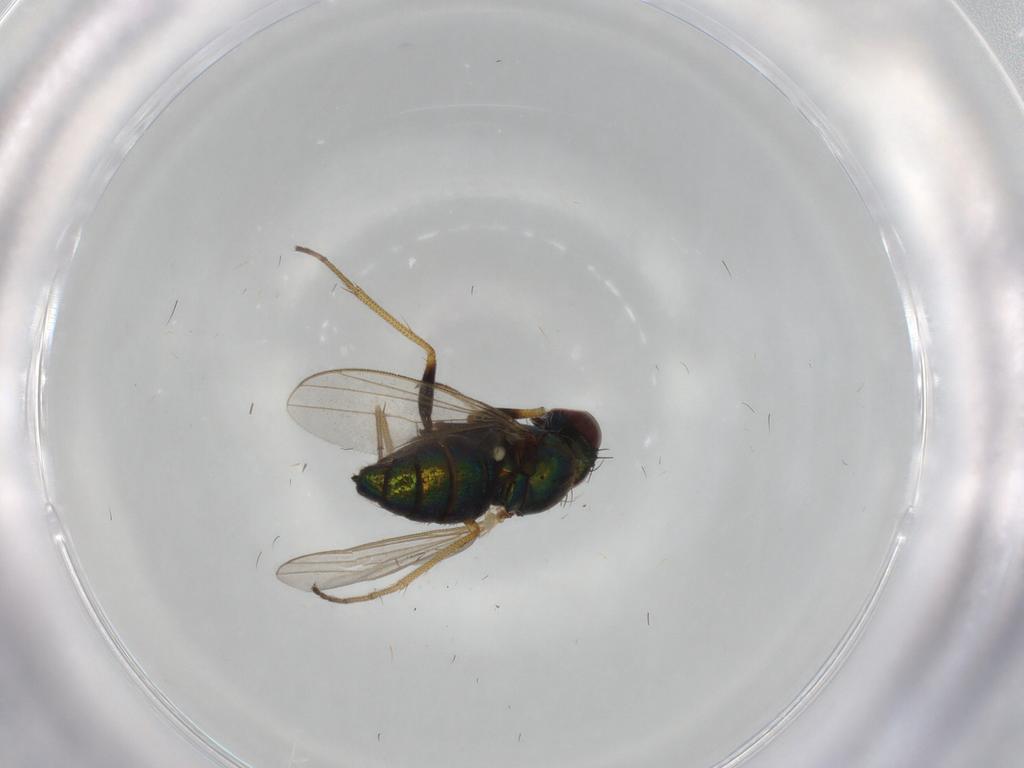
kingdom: Animalia
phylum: Arthropoda
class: Insecta
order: Diptera
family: Dolichopodidae
